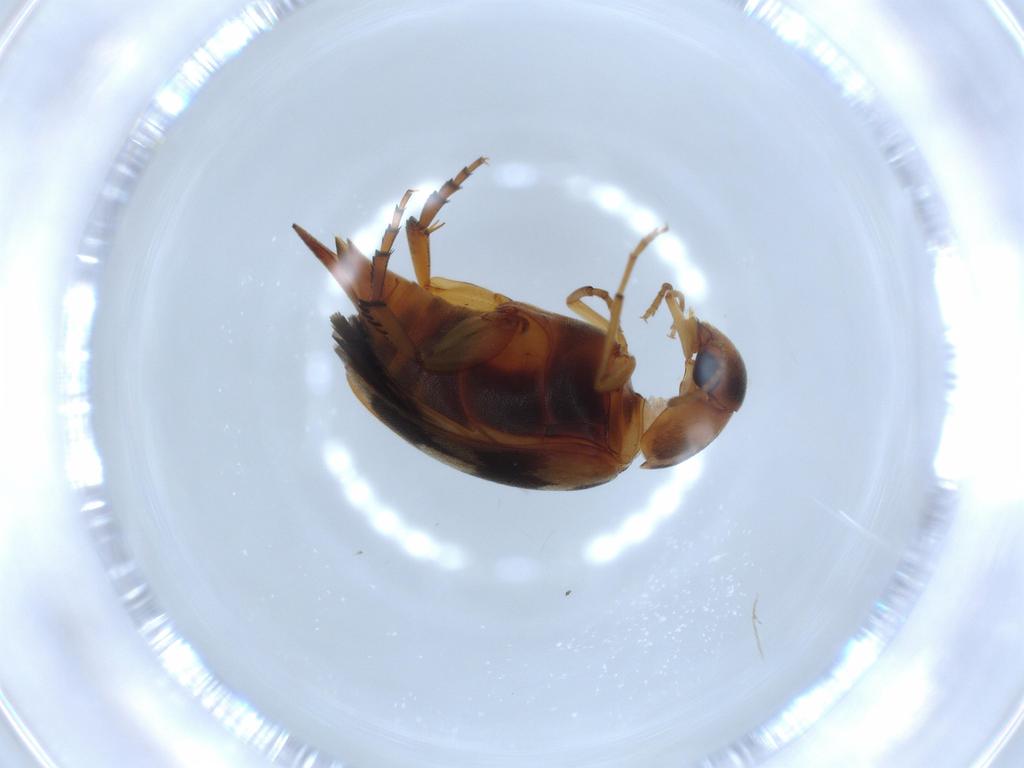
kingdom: Animalia
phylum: Arthropoda
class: Insecta
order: Coleoptera
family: Mordellidae
